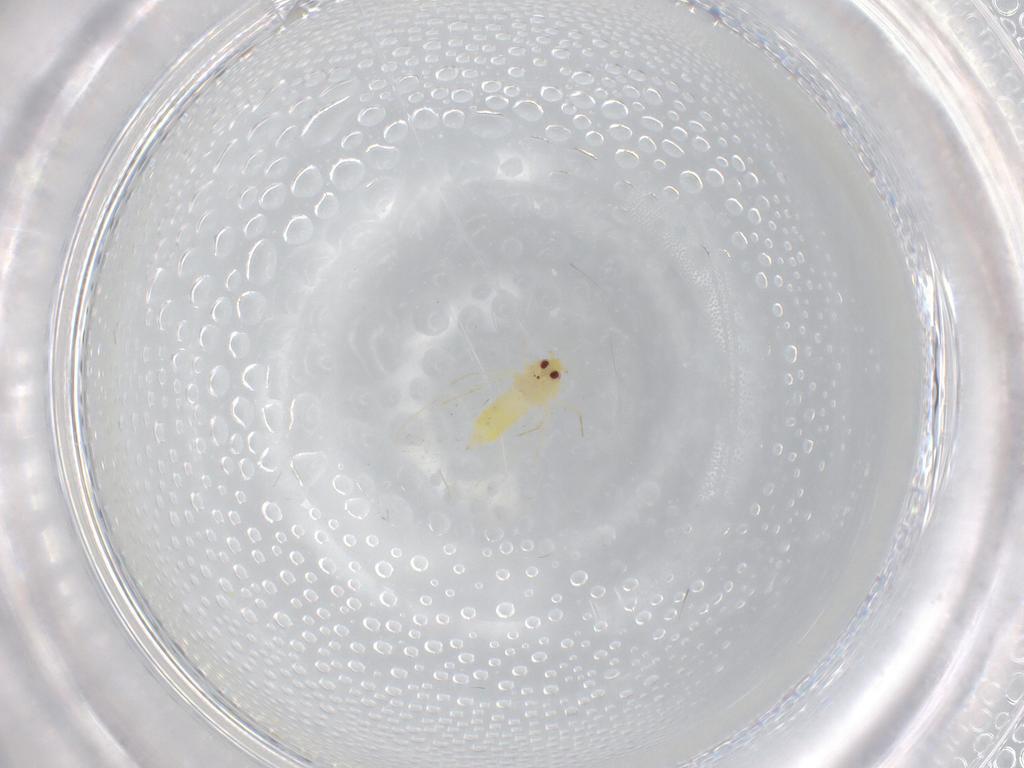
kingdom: Animalia
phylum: Arthropoda
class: Insecta
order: Hemiptera
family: Aleyrodidae
